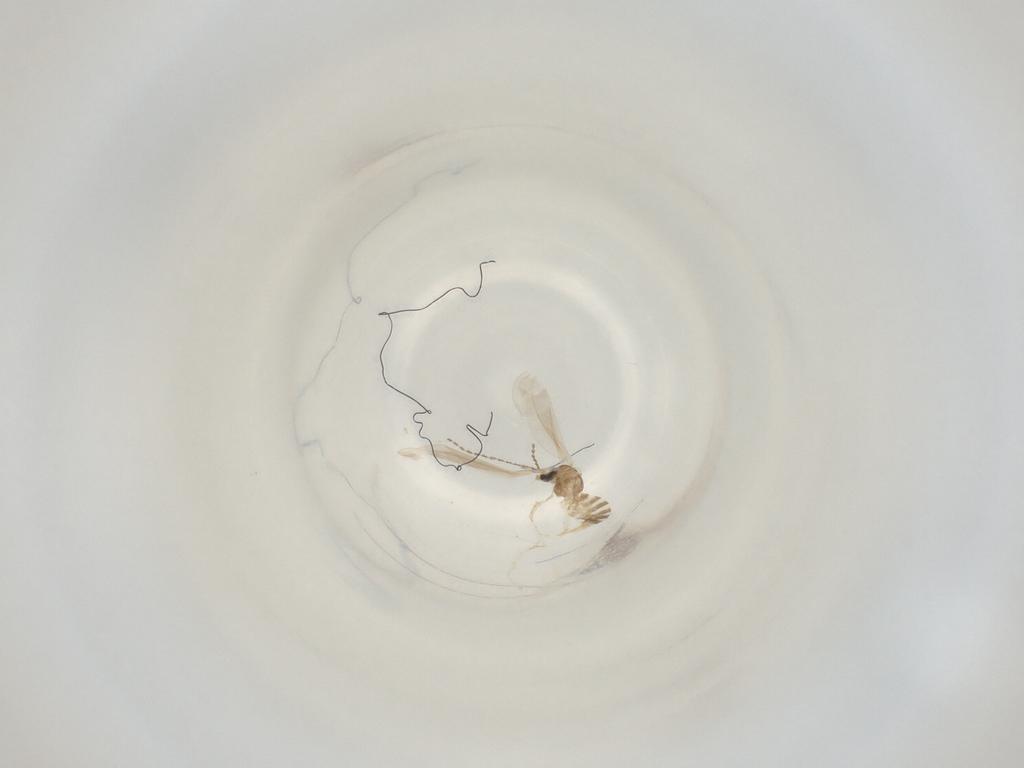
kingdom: Animalia
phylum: Arthropoda
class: Insecta
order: Diptera
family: Cecidomyiidae
